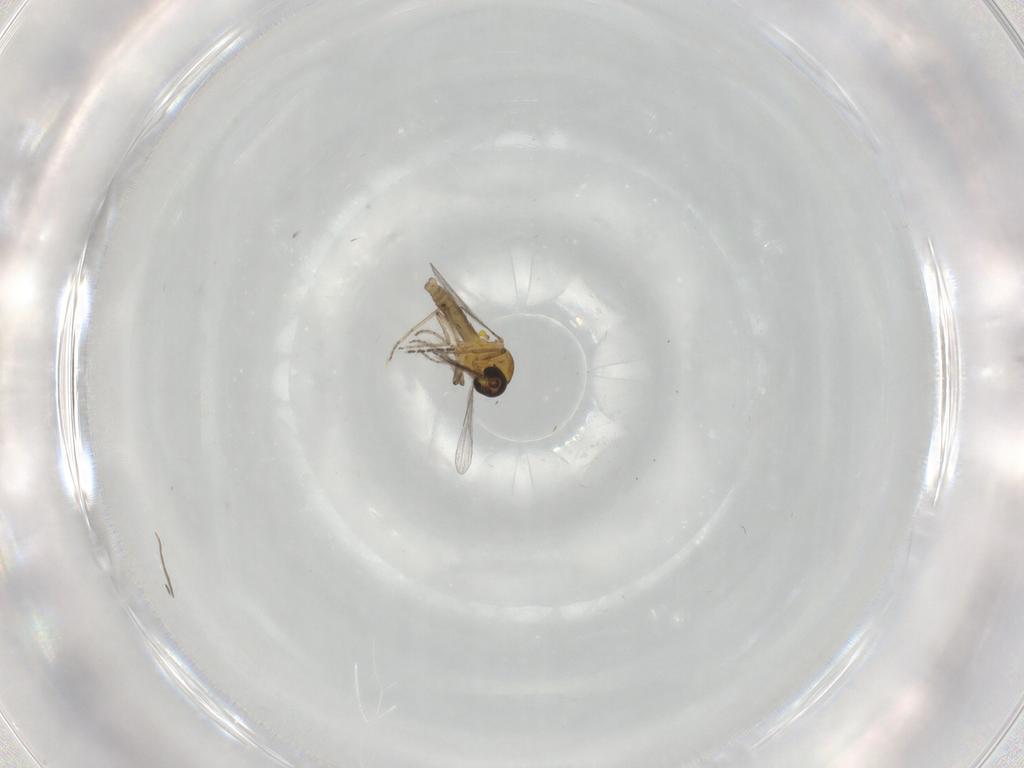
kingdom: Animalia
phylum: Arthropoda
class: Insecta
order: Diptera
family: Ceratopogonidae
